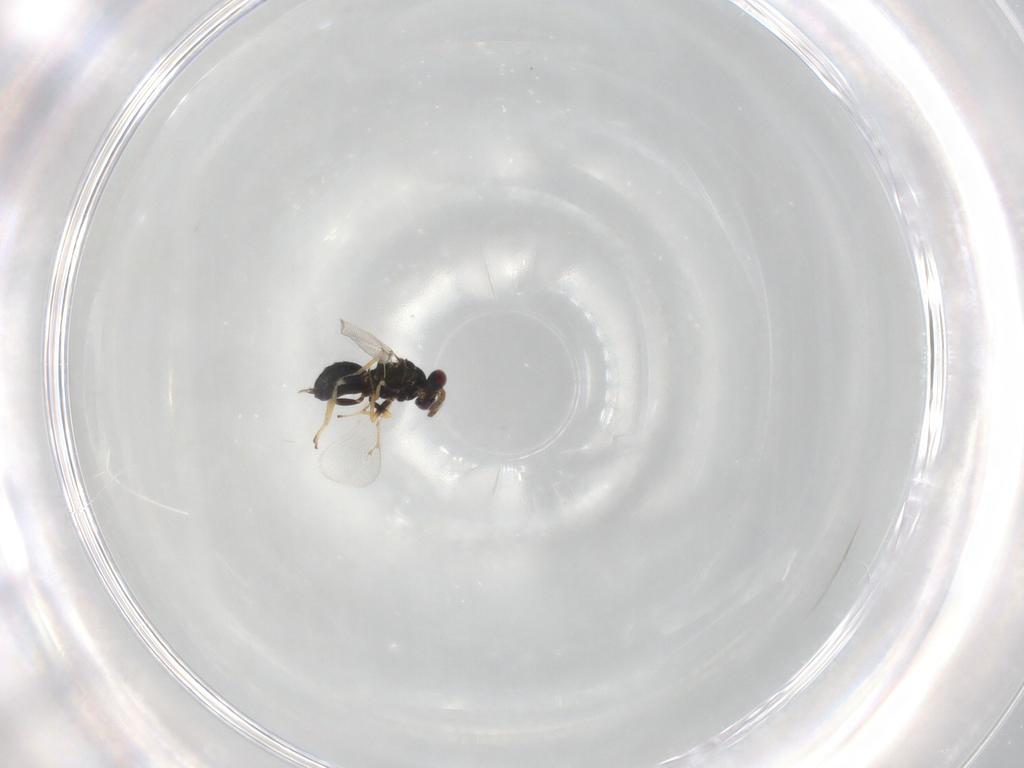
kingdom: Animalia
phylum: Arthropoda
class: Insecta
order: Hymenoptera
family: Eulophidae
